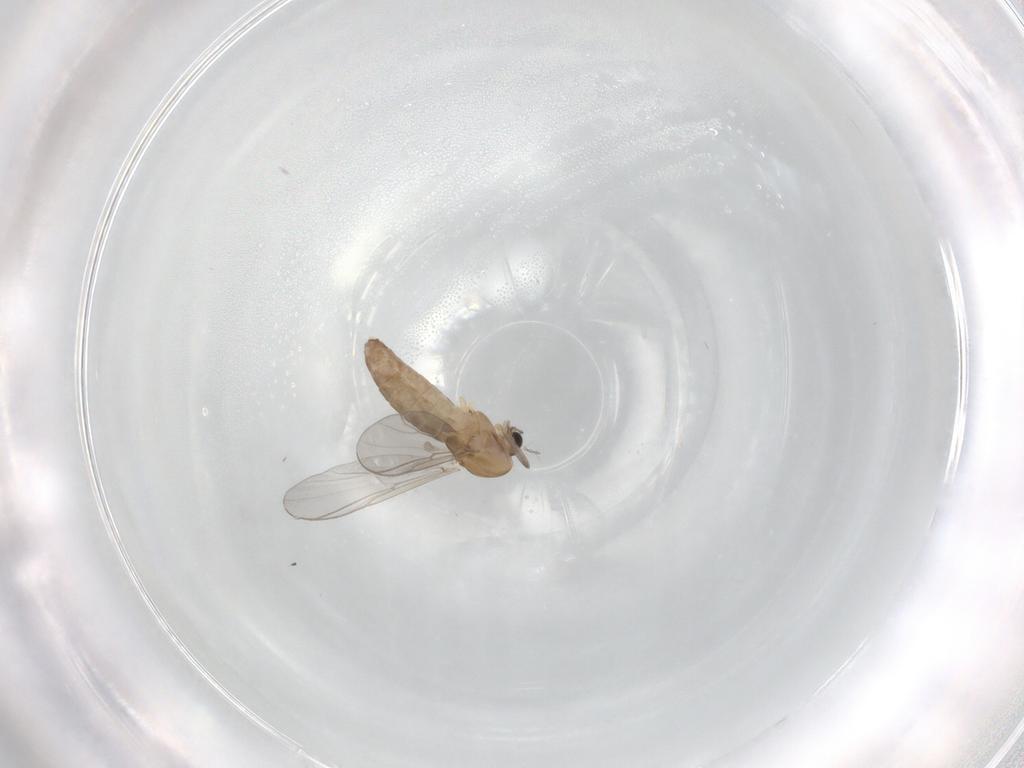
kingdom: Animalia
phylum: Arthropoda
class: Insecta
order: Diptera
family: Chironomidae
